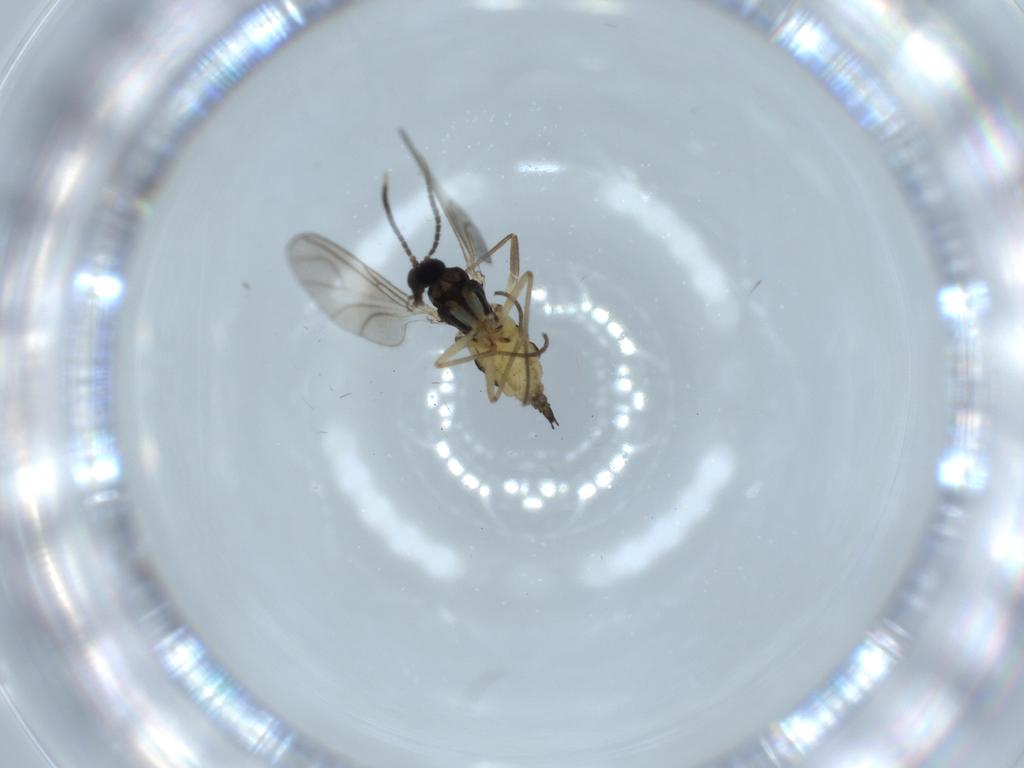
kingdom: Animalia
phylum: Arthropoda
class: Insecta
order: Diptera
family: Sciaridae
